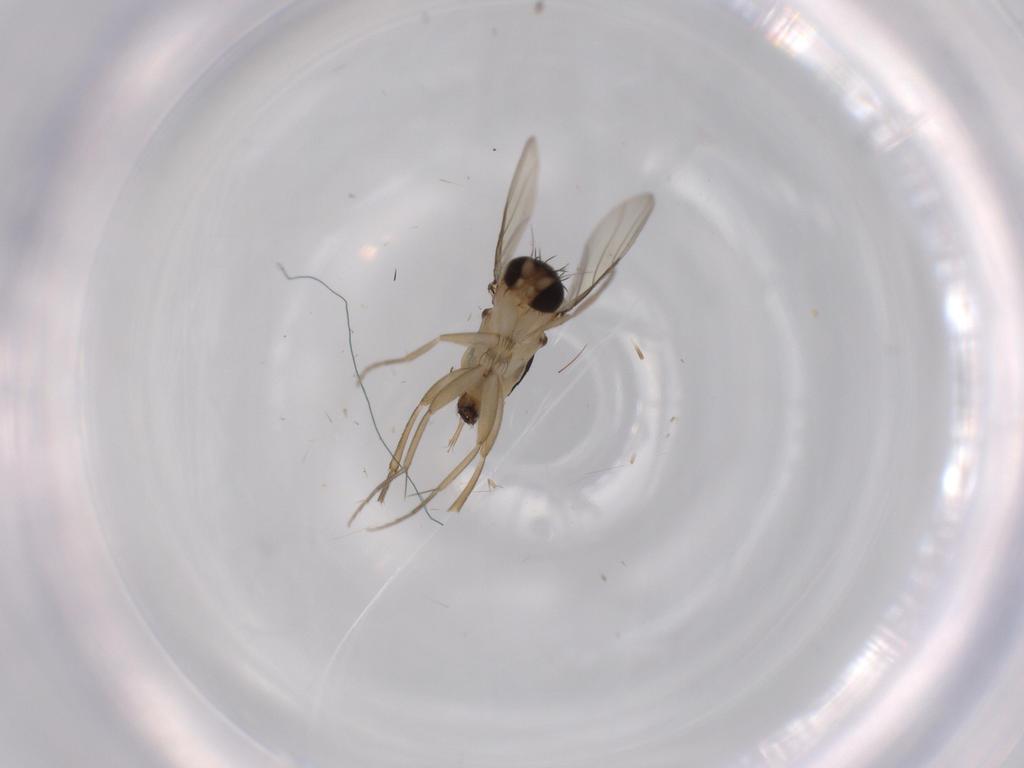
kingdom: Animalia
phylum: Arthropoda
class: Insecta
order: Diptera
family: Phoridae
